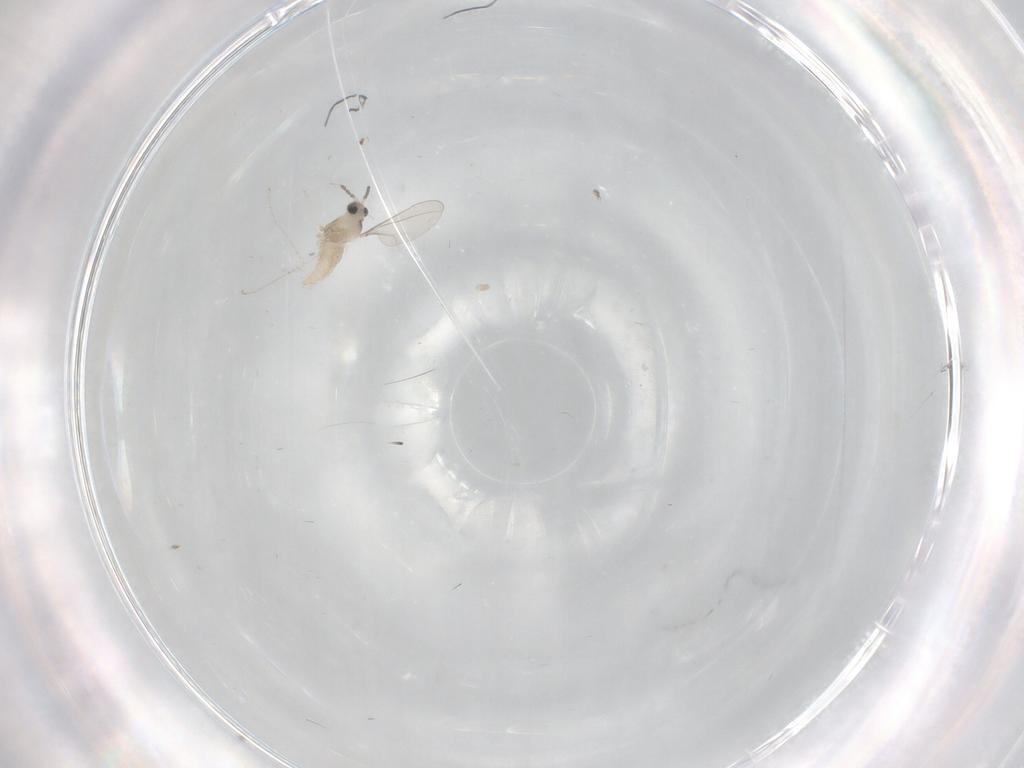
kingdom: Animalia
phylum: Arthropoda
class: Insecta
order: Diptera
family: Cecidomyiidae
